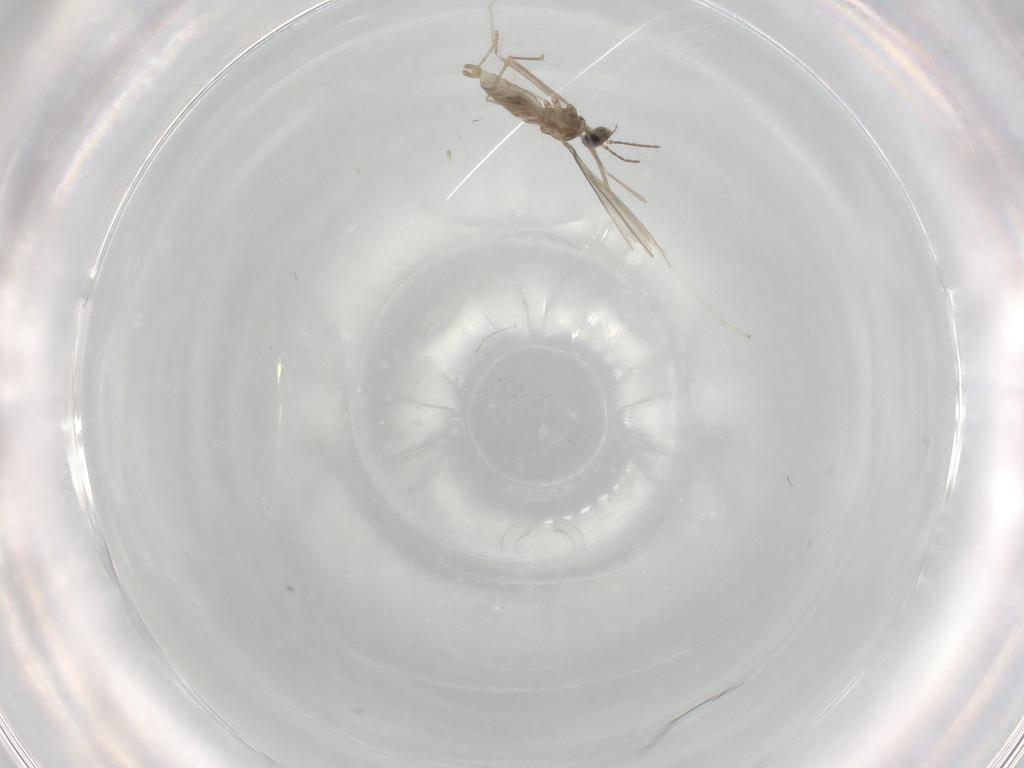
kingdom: Animalia
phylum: Arthropoda
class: Insecta
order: Diptera
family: Cecidomyiidae
